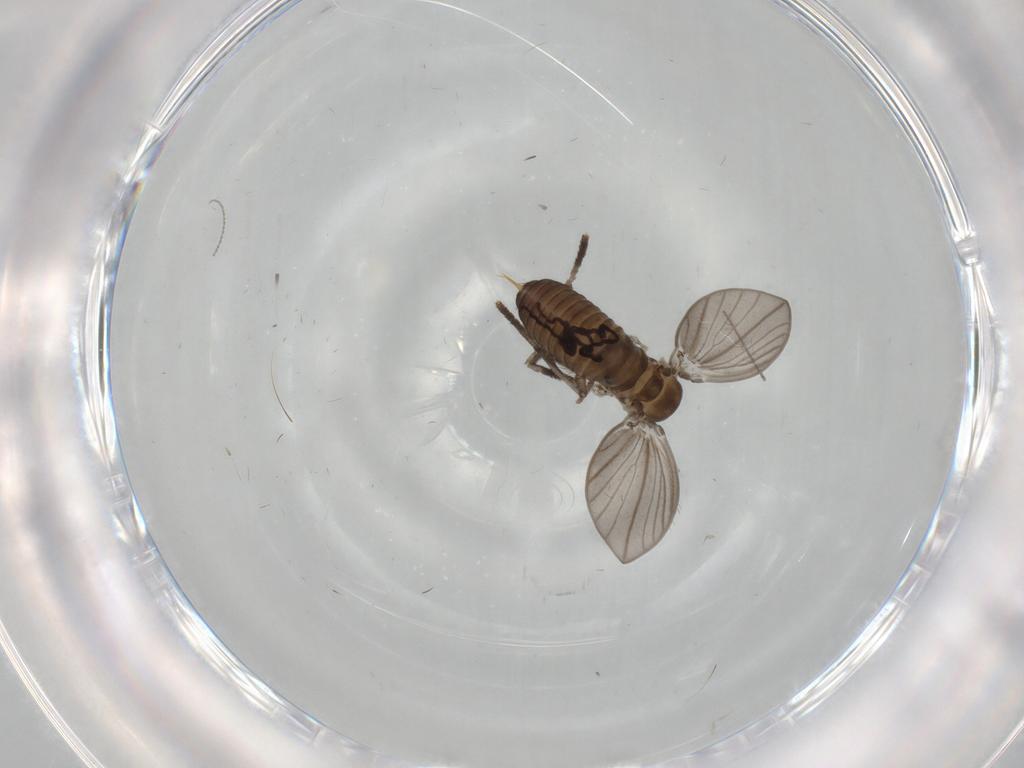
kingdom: Animalia
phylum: Arthropoda
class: Insecta
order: Diptera
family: Psychodidae
